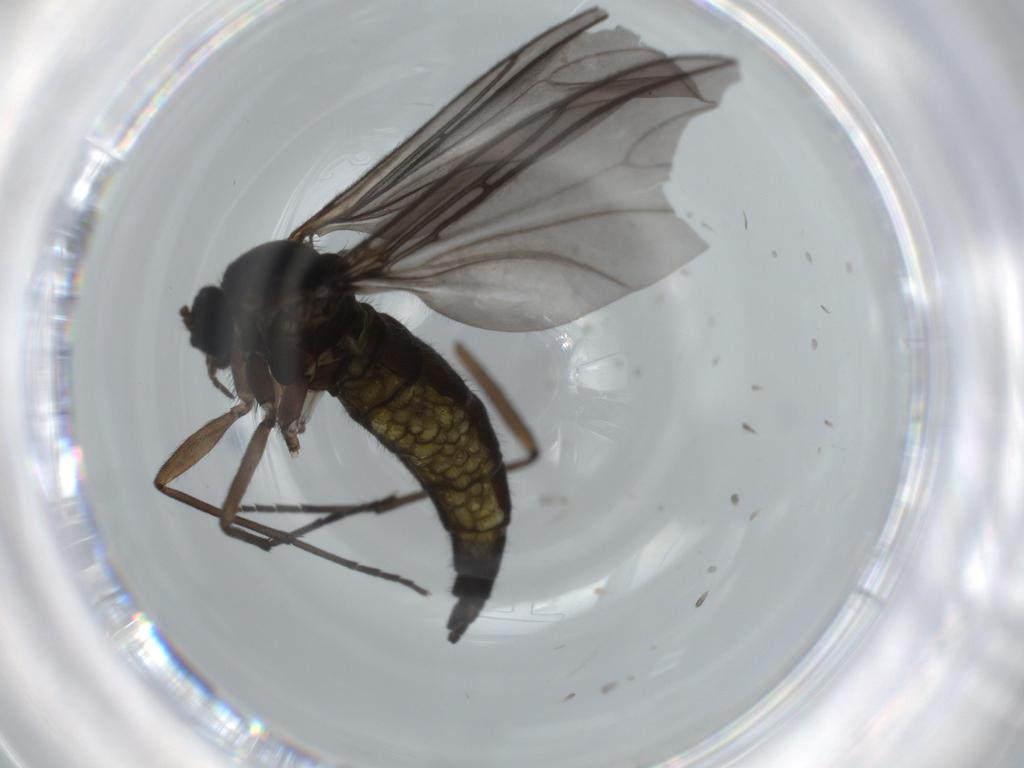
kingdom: Animalia
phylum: Arthropoda
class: Insecta
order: Diptera
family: Sciaridae
